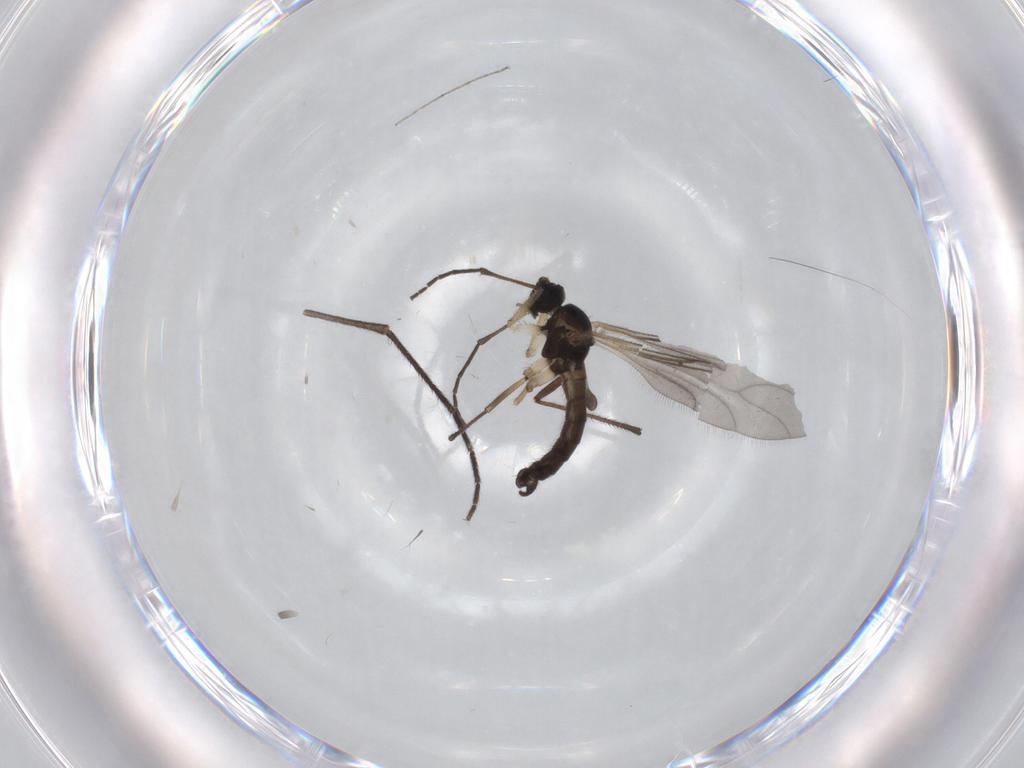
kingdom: Animalia
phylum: Arthropoda
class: Insecta
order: Diptera
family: Sciaridae
